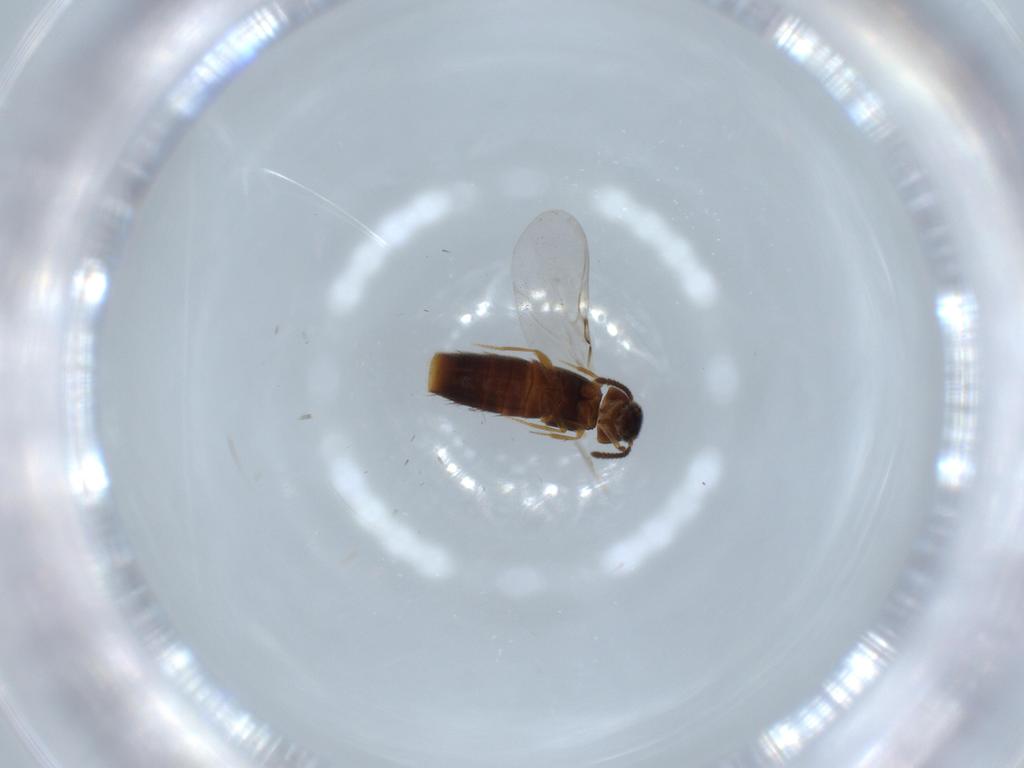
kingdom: Animalia
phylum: Arthropoda
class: Insecta
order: Coleoptera
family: Staphylinidae
